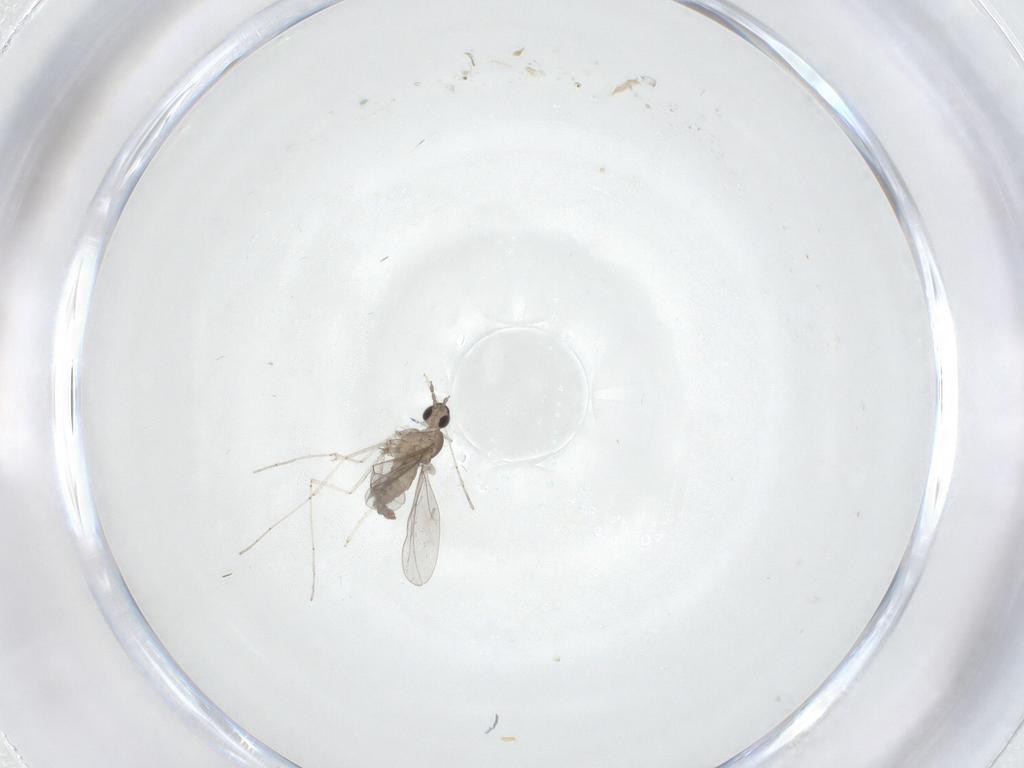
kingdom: Animalia
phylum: Arthropoda
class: Insecta
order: Diptera
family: Cecidomyiidae
